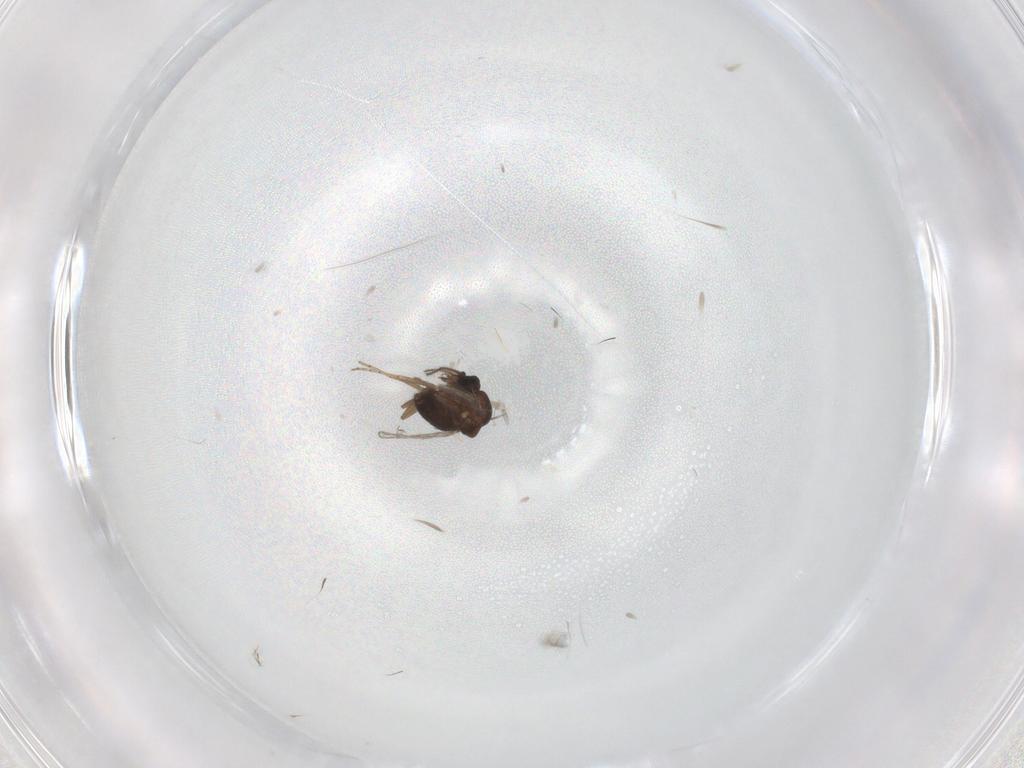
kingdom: Animalia
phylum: Arthropoda
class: Insecta
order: Diptera
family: Ceratopogonidae
